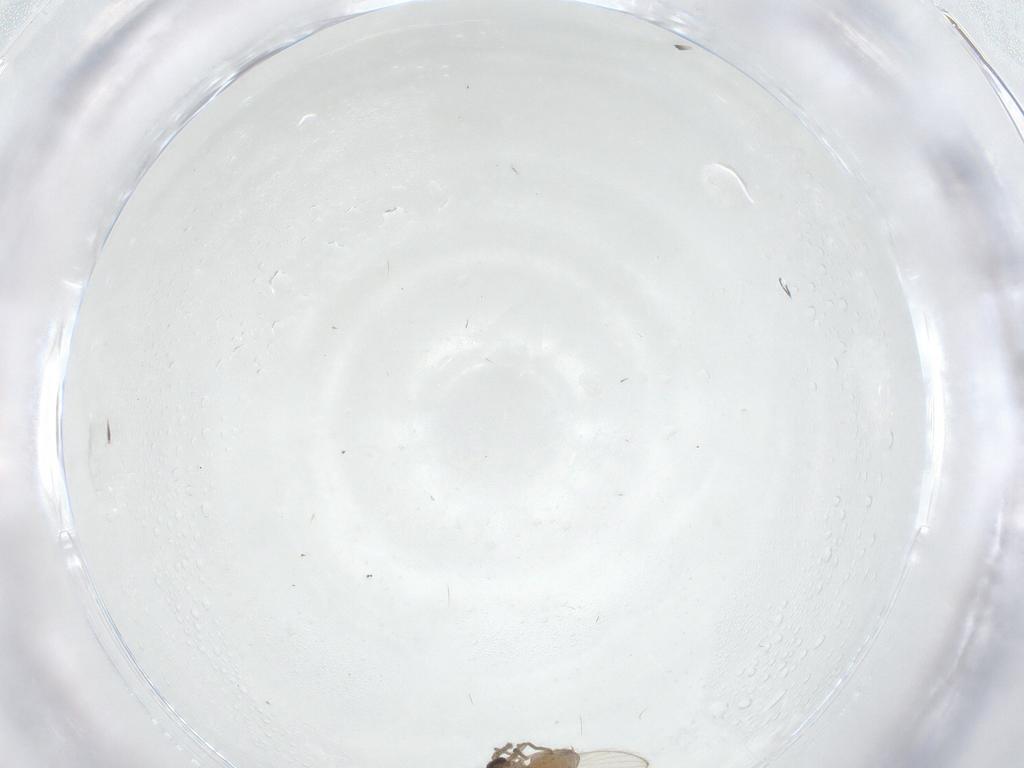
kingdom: Animalia
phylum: Arthropoda
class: Insecta
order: Diptera
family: Psychodidae
